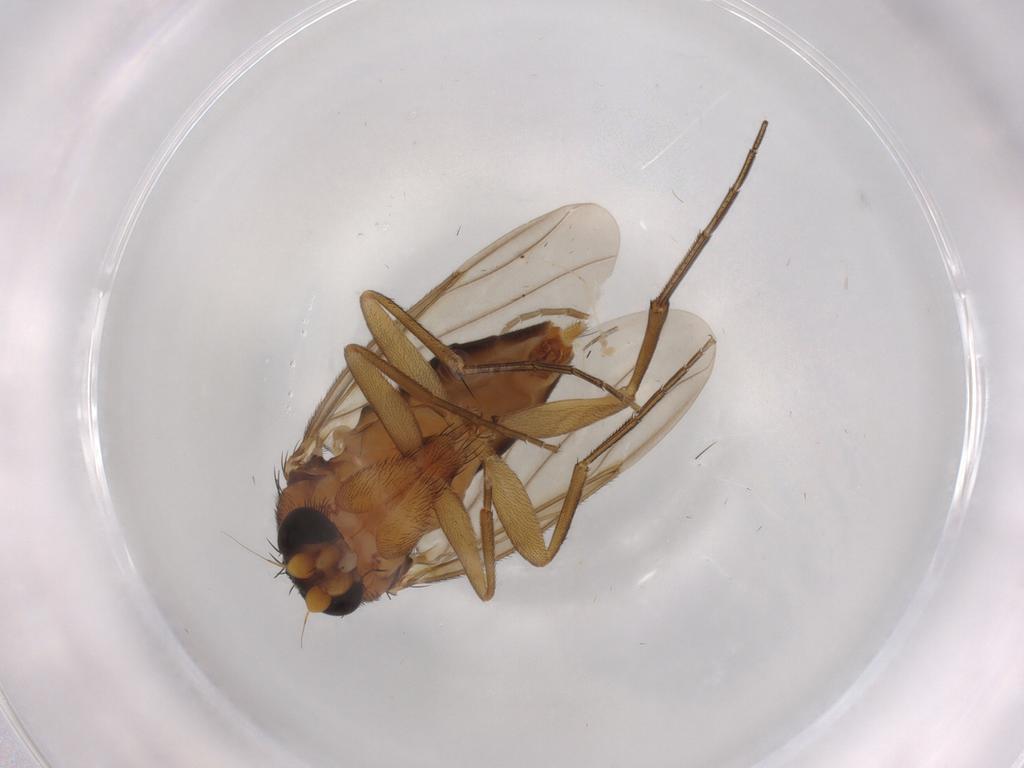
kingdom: Animalia
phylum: Arthropoda
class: Insecta
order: Diptera
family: Phoridae
